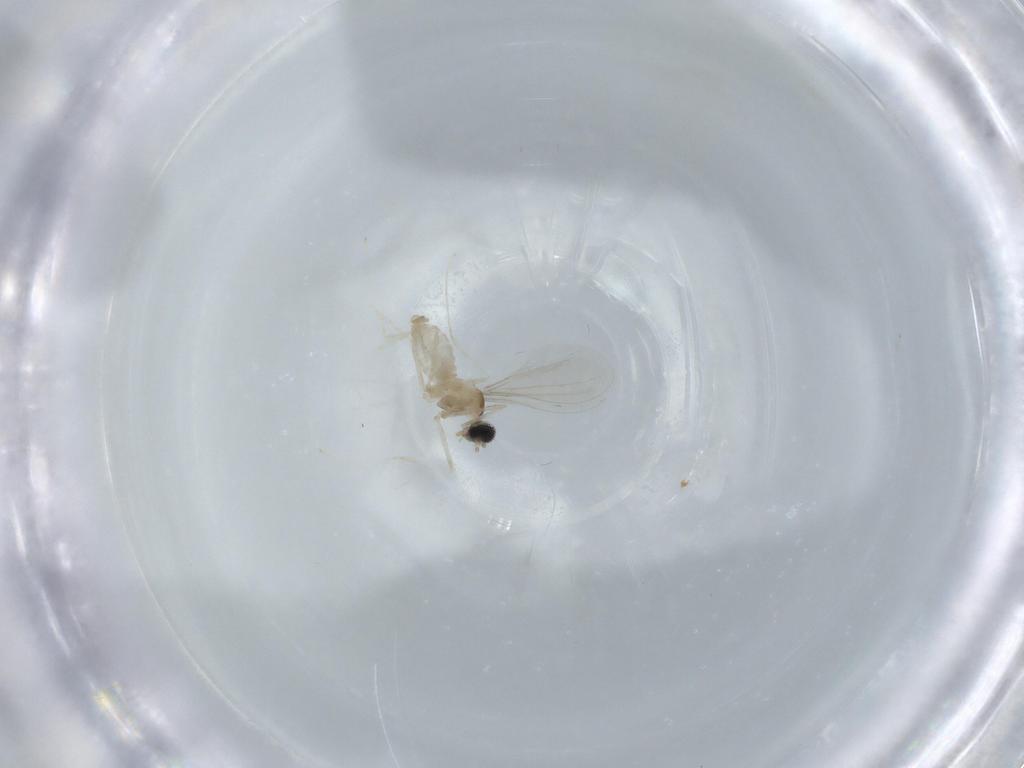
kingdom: Animalia
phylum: Arthropoda
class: Insecta
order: Diptera
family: Cecidomyiidae
